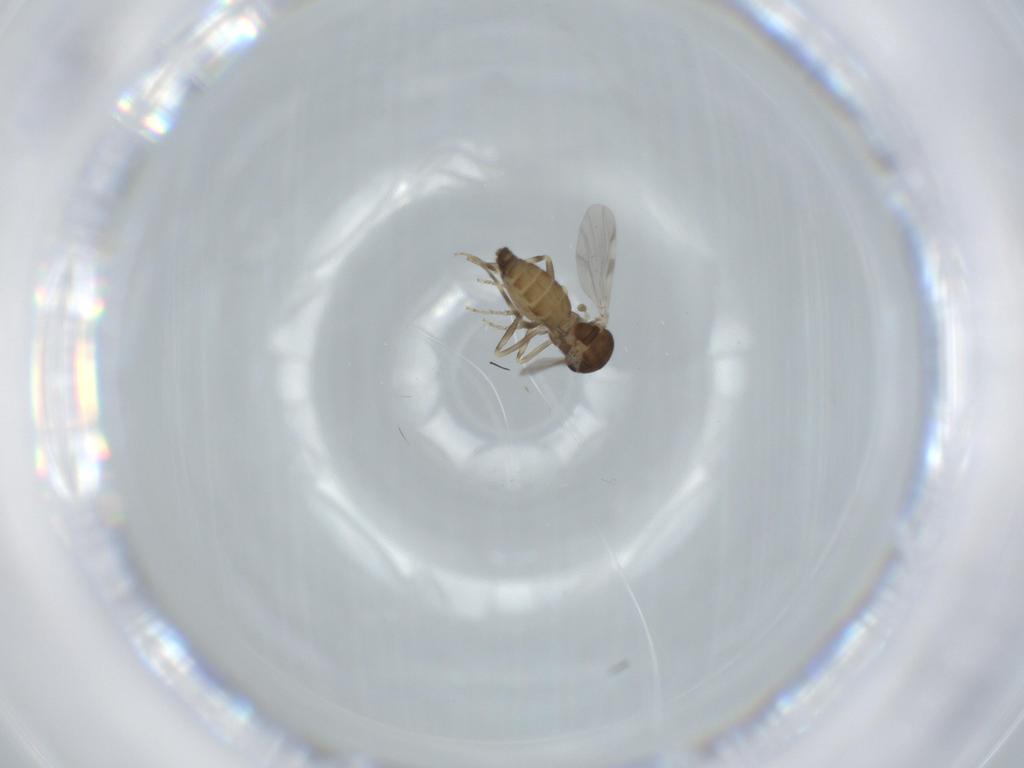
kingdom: Animalia
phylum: Arthropoda
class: Insecta
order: Diptera
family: Ceratopogonidae
